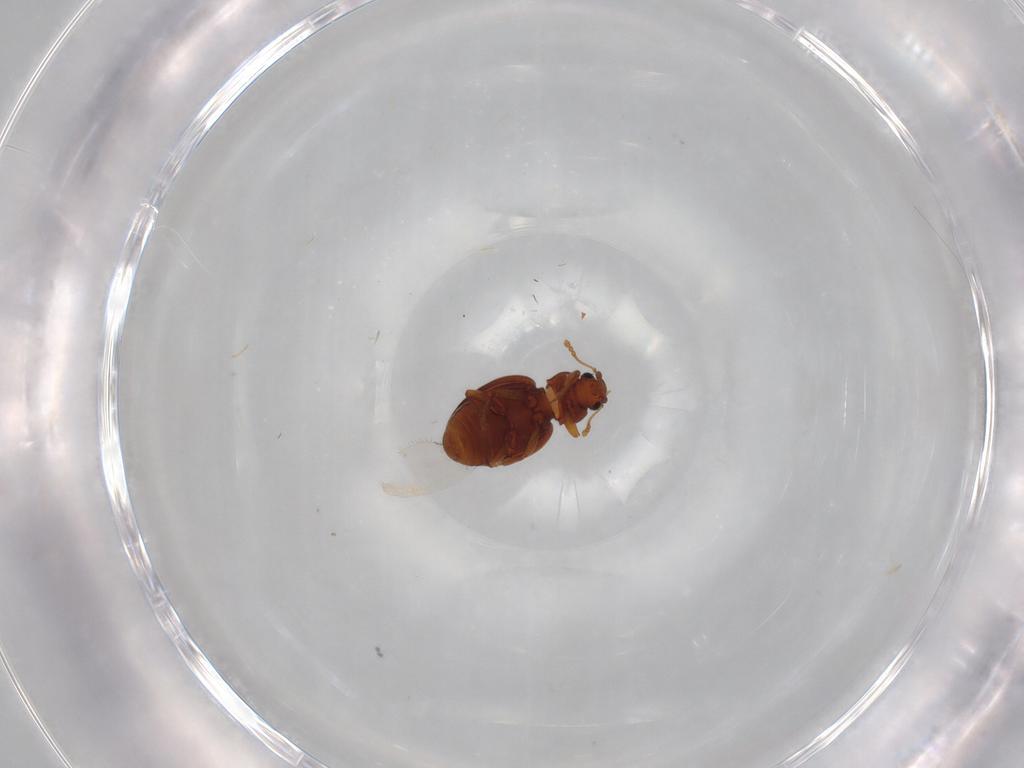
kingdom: Animalia
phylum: Arthropoda
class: Insecta
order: Coleoptera
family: Latridiidae
